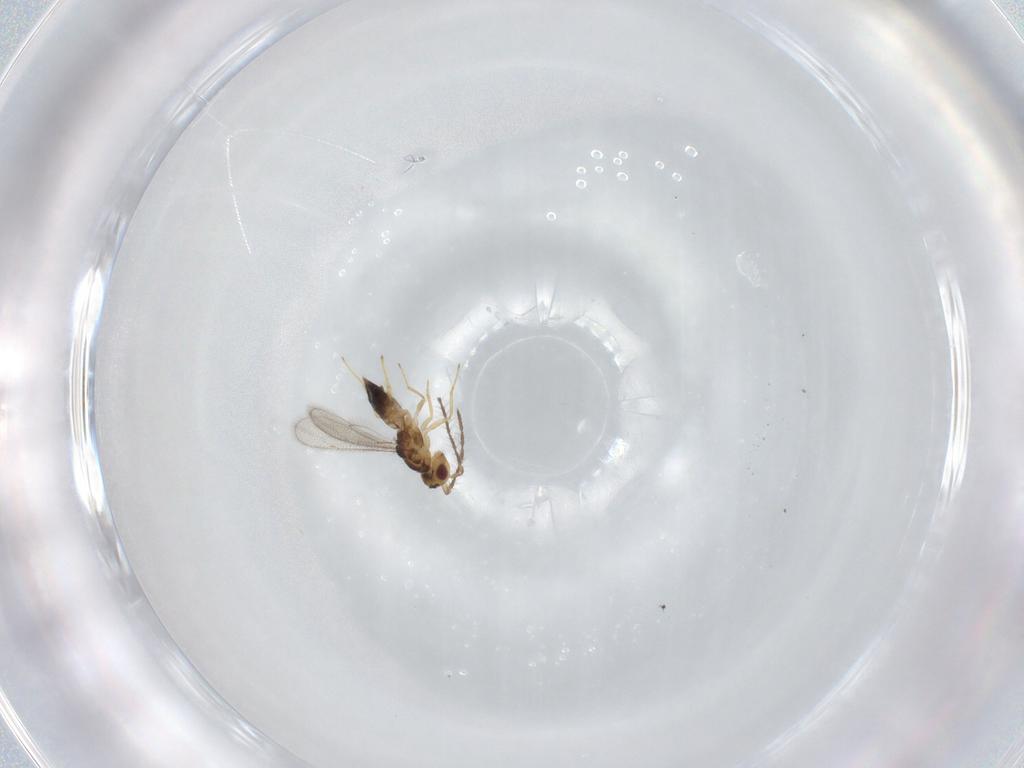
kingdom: Animalia
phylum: Arthropoda
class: Insecta
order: Hymenoptera
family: Eulophidae
